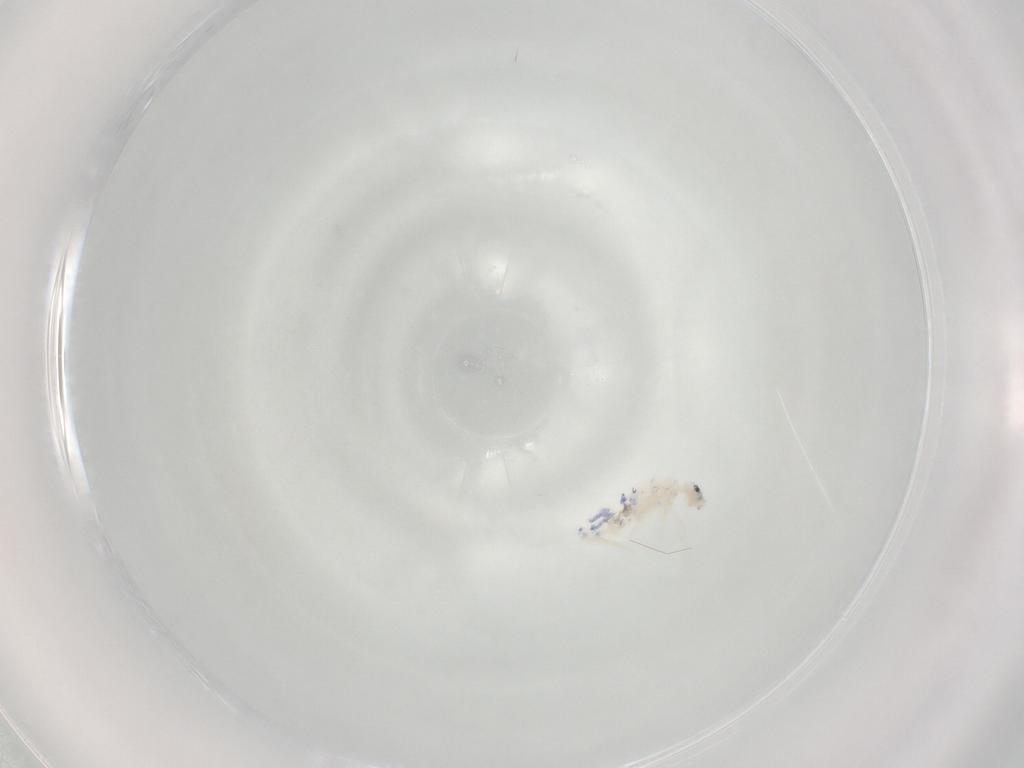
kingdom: Animalia
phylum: Arthropoda
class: Collembola
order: Entomobryomorpha
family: Entomobryidae
